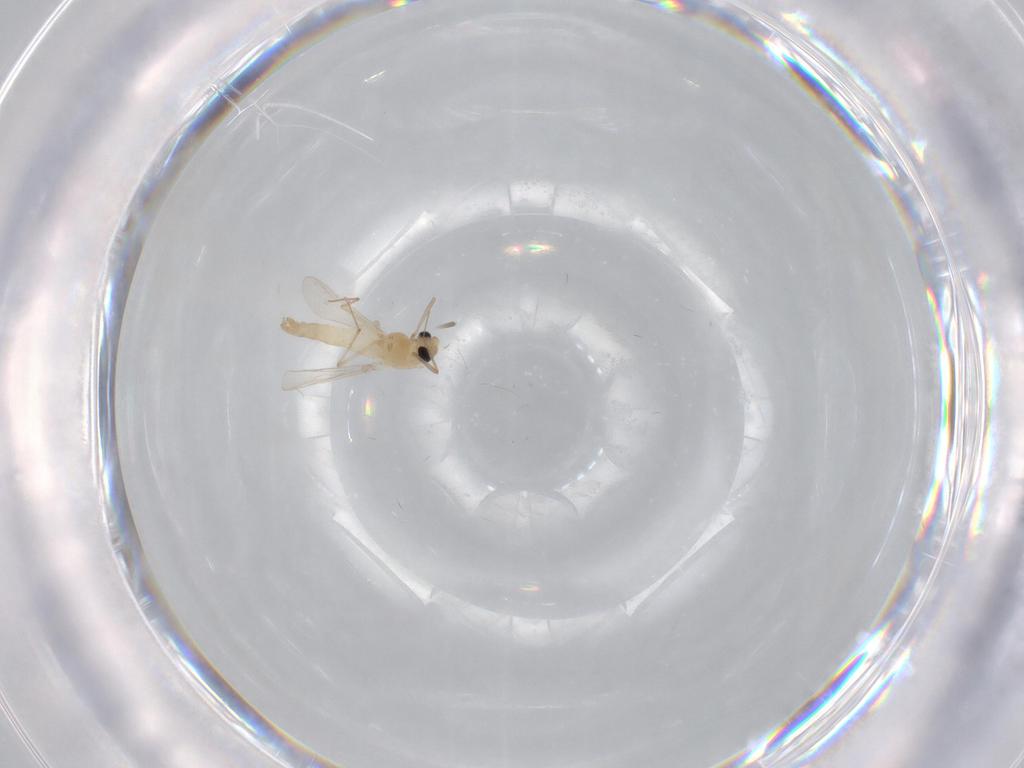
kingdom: Animalia
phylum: Arthropoda
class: Insecta
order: Diptera
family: Chironomidae
